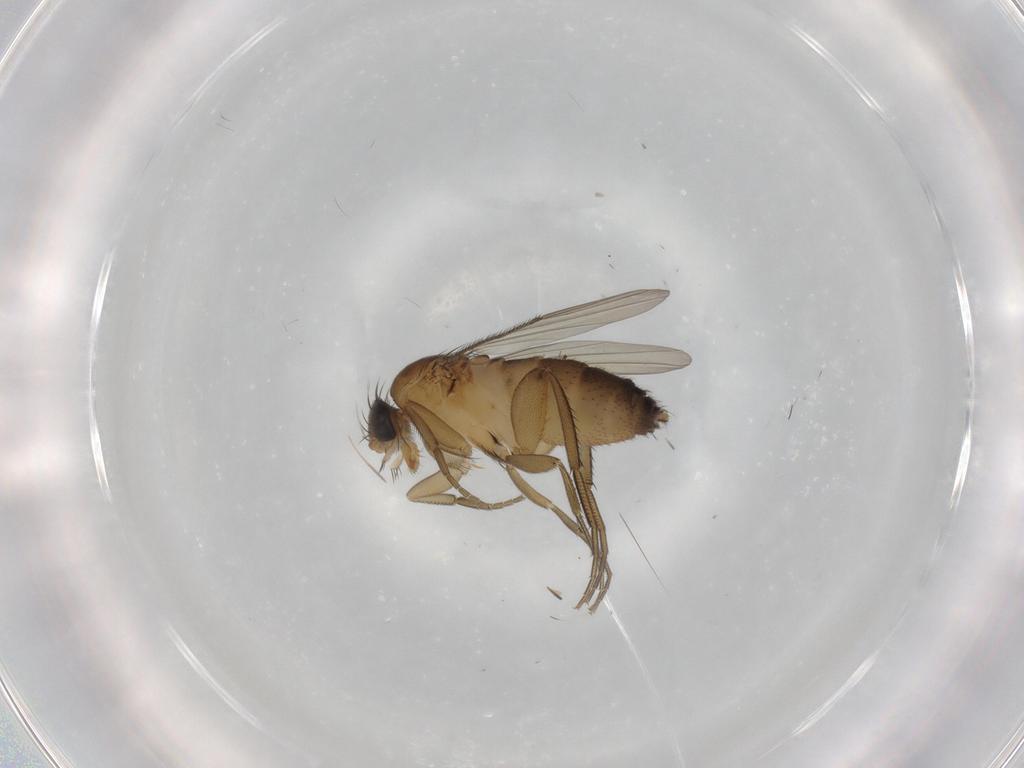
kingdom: Animalia
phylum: Arthropoda
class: Insecta
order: Diptera
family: Phoridae
